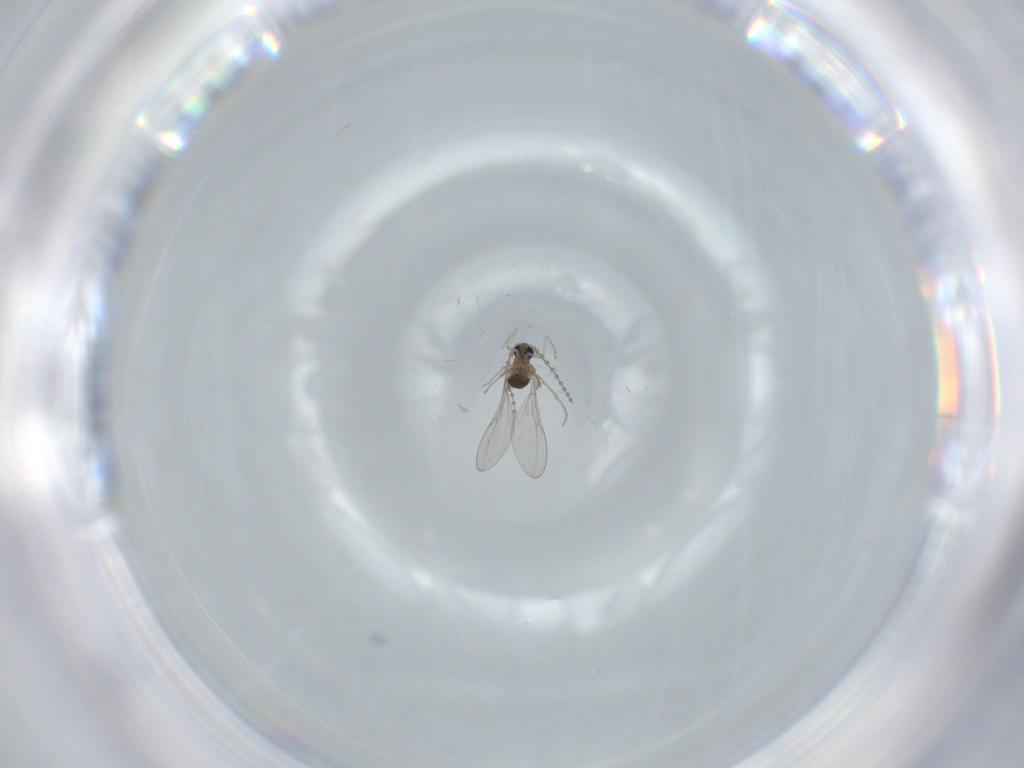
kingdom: Animalia
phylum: Arthropoda
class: Insecta
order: Diptera
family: Cecidomyiidae
